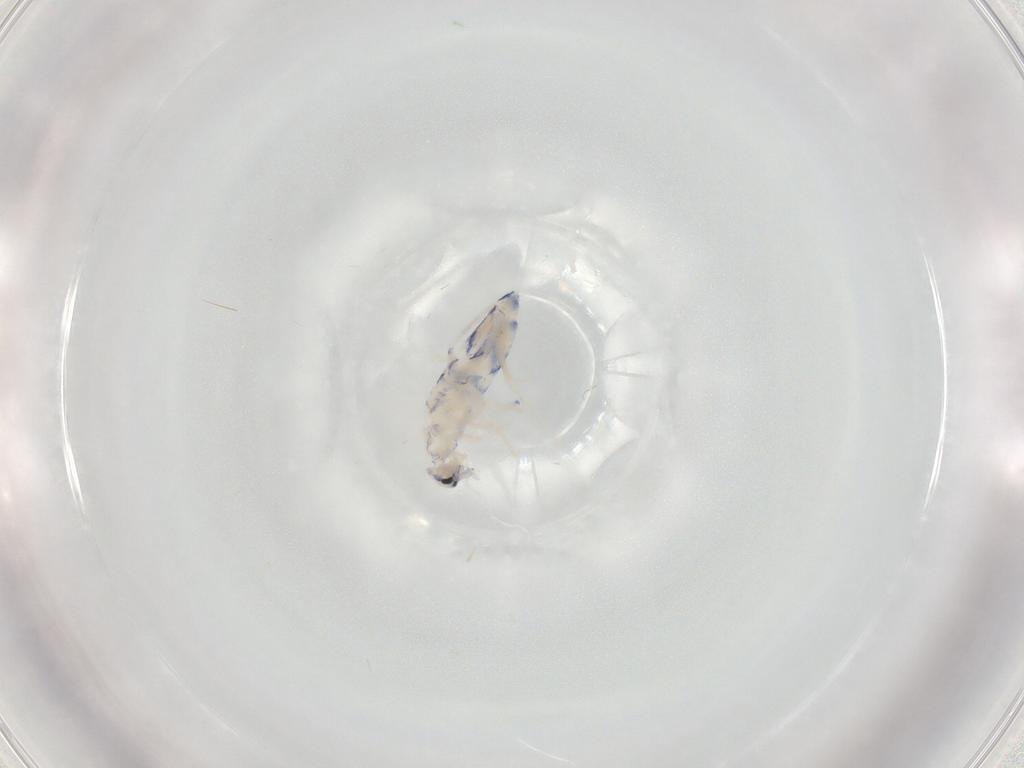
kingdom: Animalia
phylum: Arthropoda
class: Collembola
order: Entomobryomorpha
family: Entomobryidae
